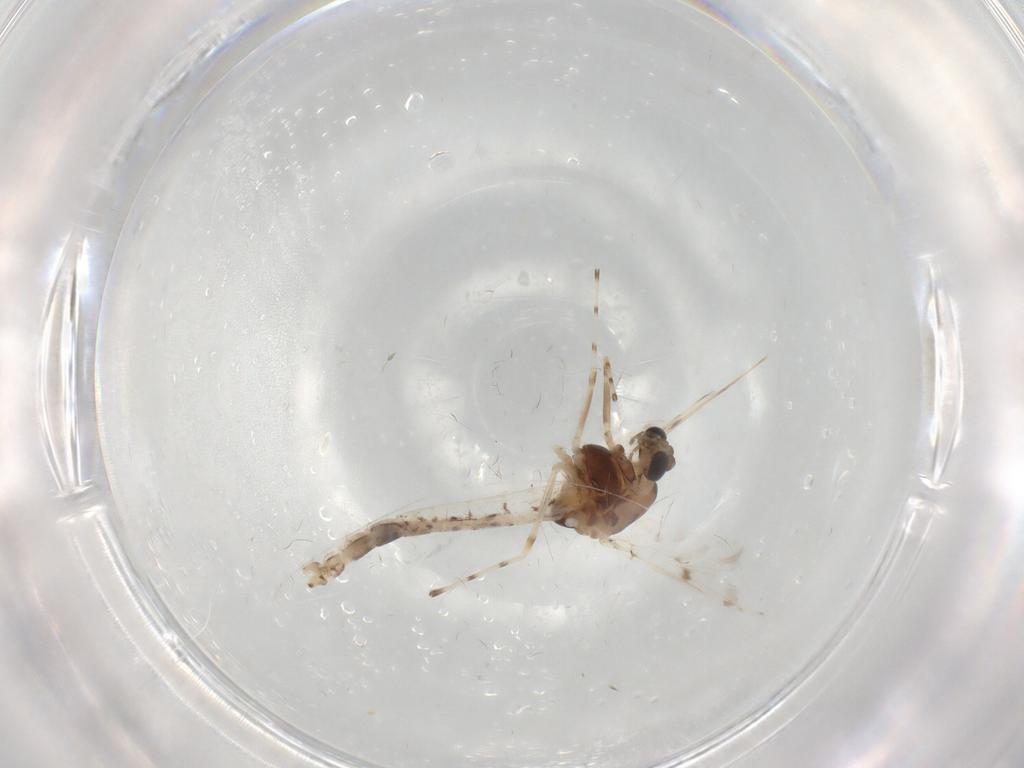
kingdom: Animalia
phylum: Arthropoda
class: Insecta
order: Diptera
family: Chironomidae
